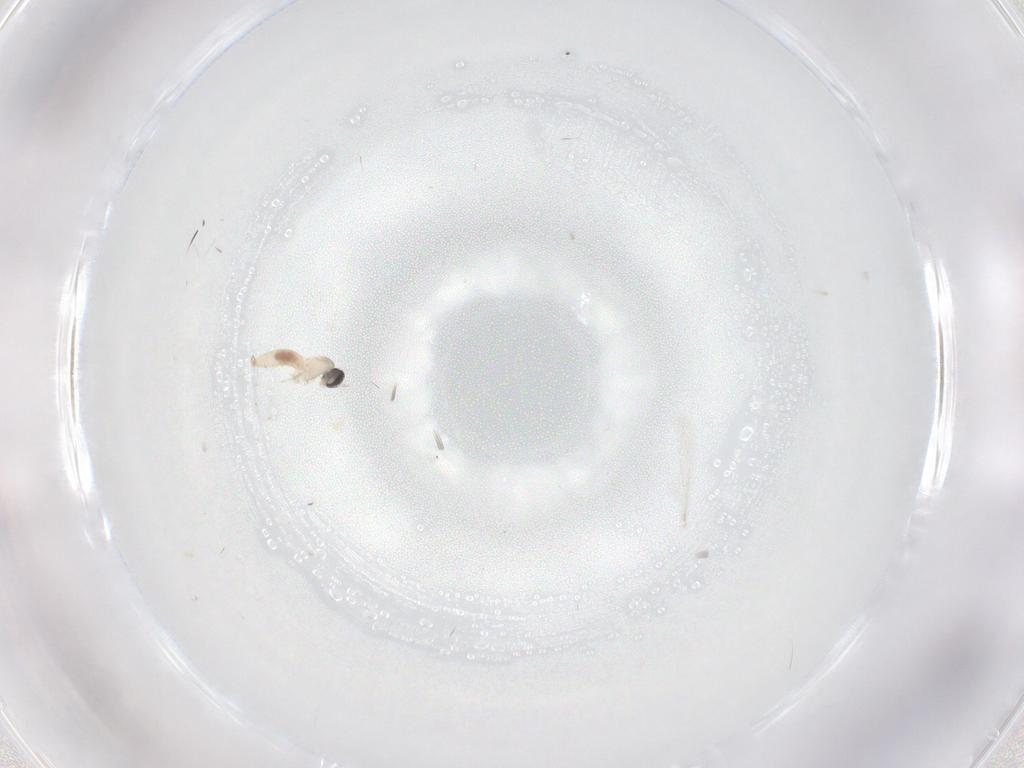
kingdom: Animalia
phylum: Arthropoda
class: Insecta
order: Diptera
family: Cecidomyiidae
